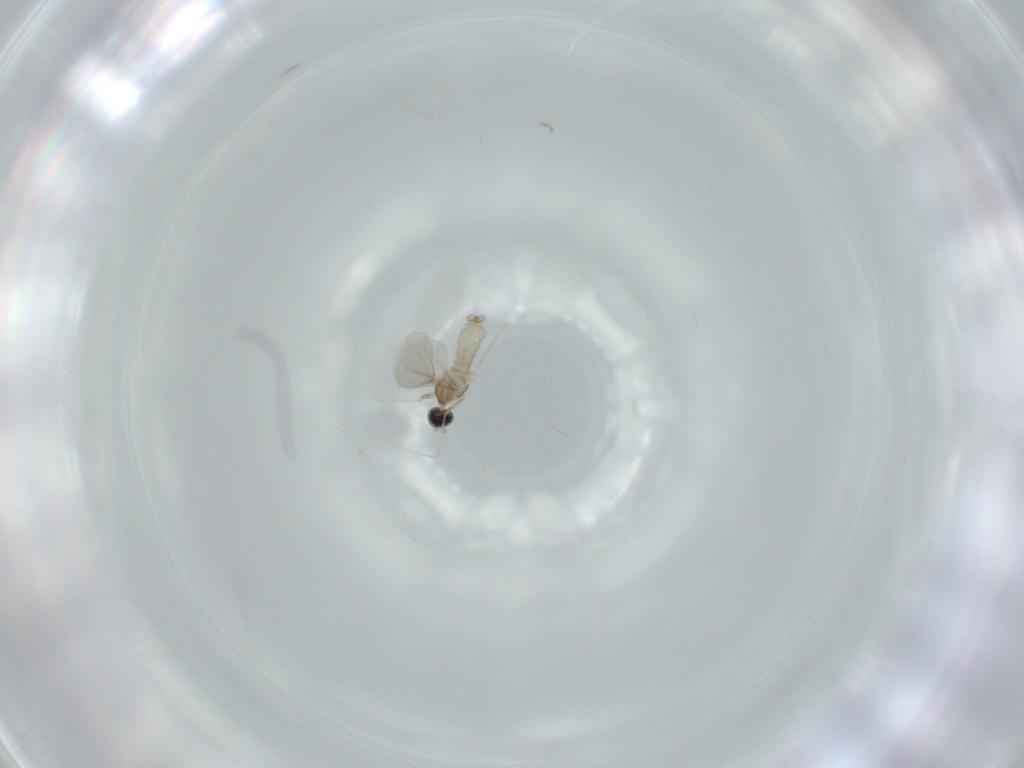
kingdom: Animalia
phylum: Arthropoda
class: Insecta
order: Diptera
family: Cecidomyiidae
